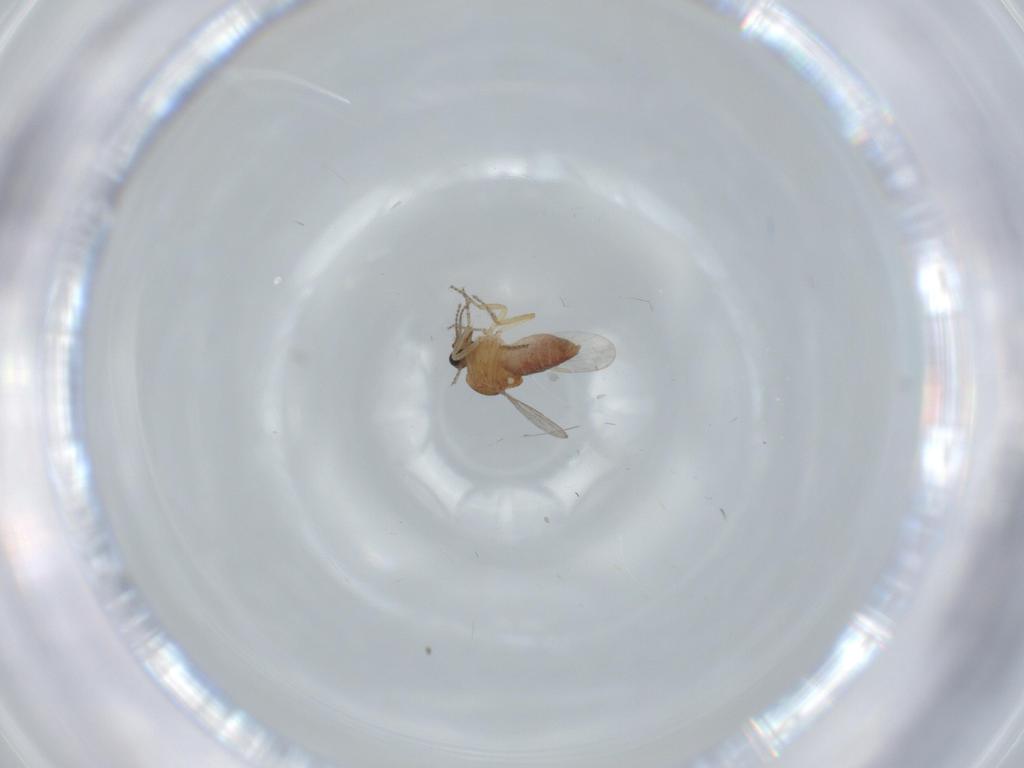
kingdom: Animalia
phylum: Arthropoda
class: Insecta
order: Diptera
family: Ceratopogonidae
